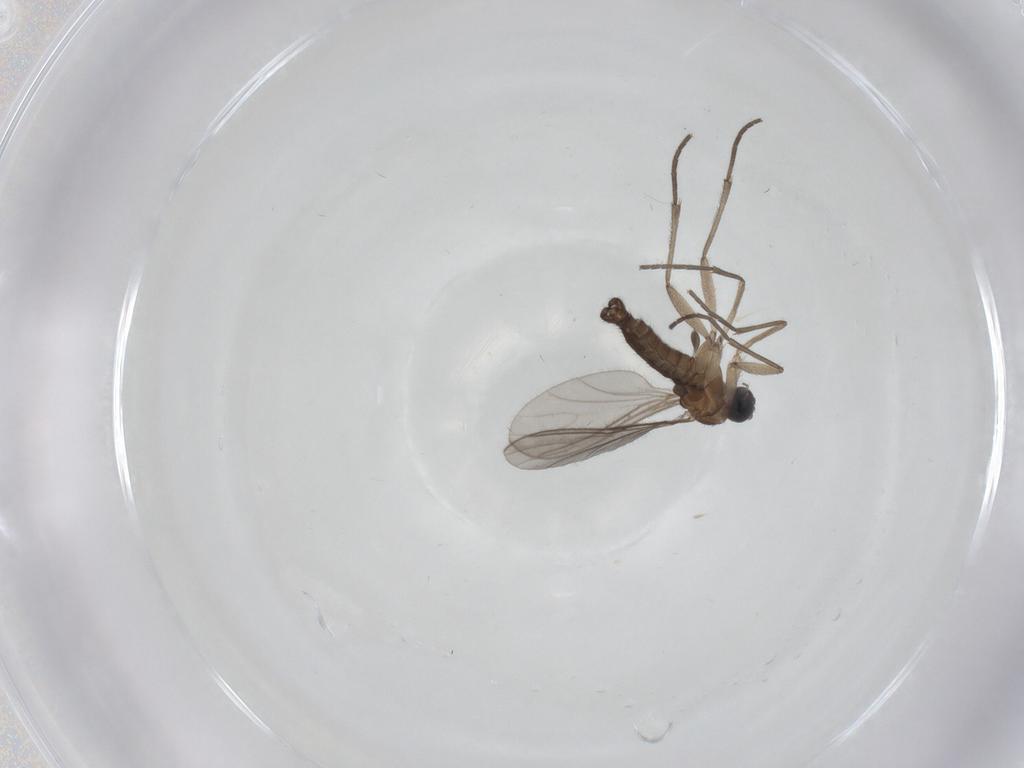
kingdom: Animalia
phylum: Arthropoda
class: Insecta
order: Diptera
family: Sciaridae
